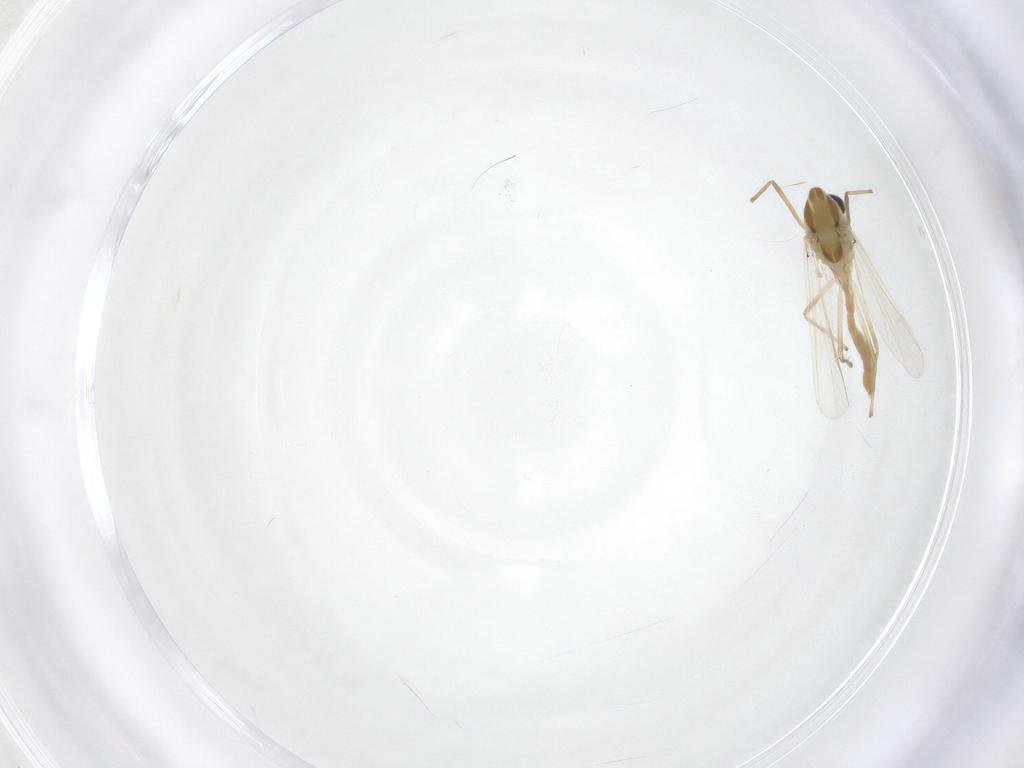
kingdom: Animalia
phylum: Arthropoda
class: Insecta
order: Diptera
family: Chironomidae
